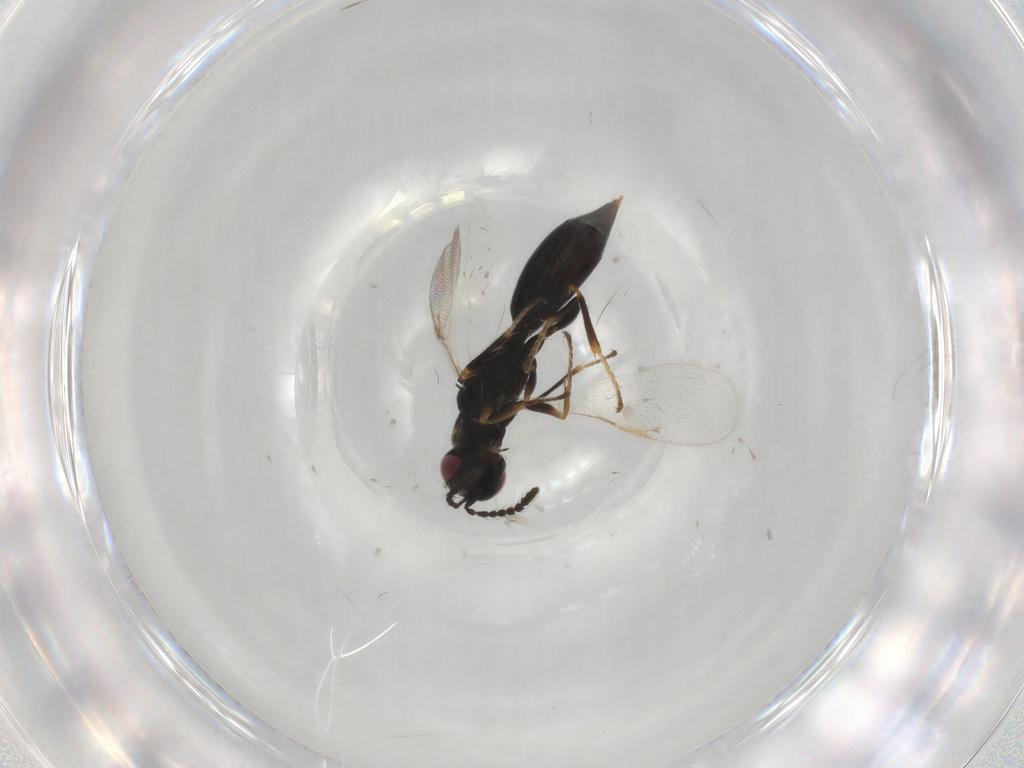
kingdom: Animalia
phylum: Arthropoda
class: Insecta
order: Hymenoptera
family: Eurytomidae
